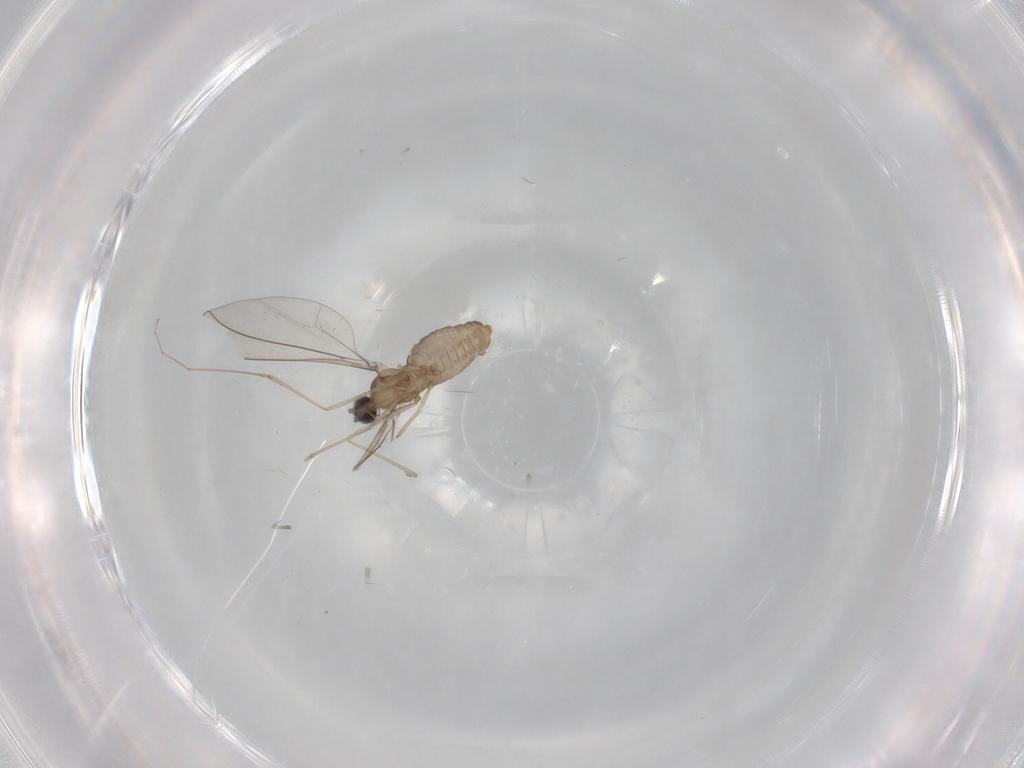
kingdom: Animalia
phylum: Arthropoda
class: Insecta
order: Diptera
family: Cecidomyiidae
